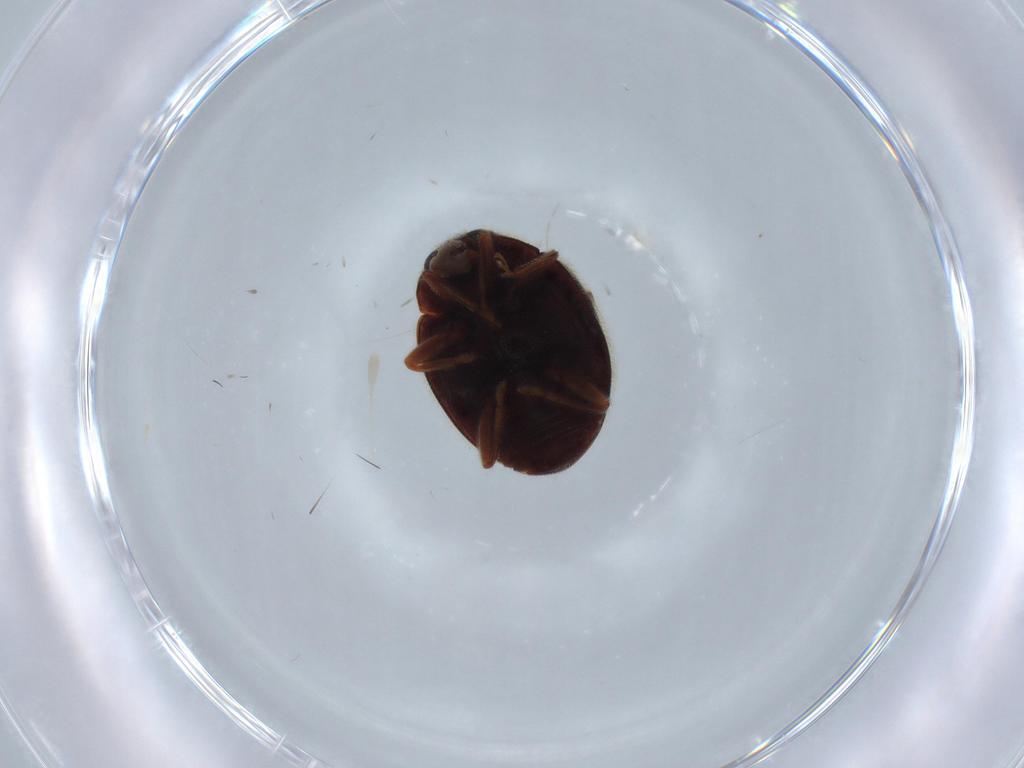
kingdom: Animalia
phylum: Arthropoda
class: Insecta
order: Coleoptera
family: Coccinellidae
